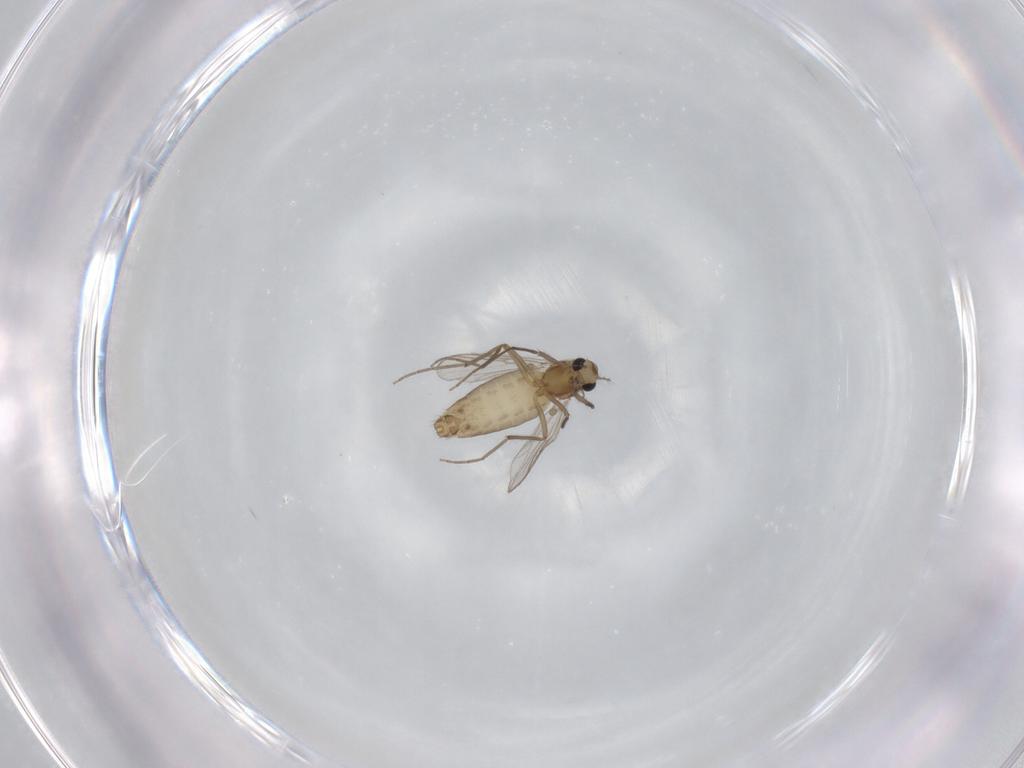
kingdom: Animalia
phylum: Arthropoda
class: Insecta
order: Diptera
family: Chironomidae
